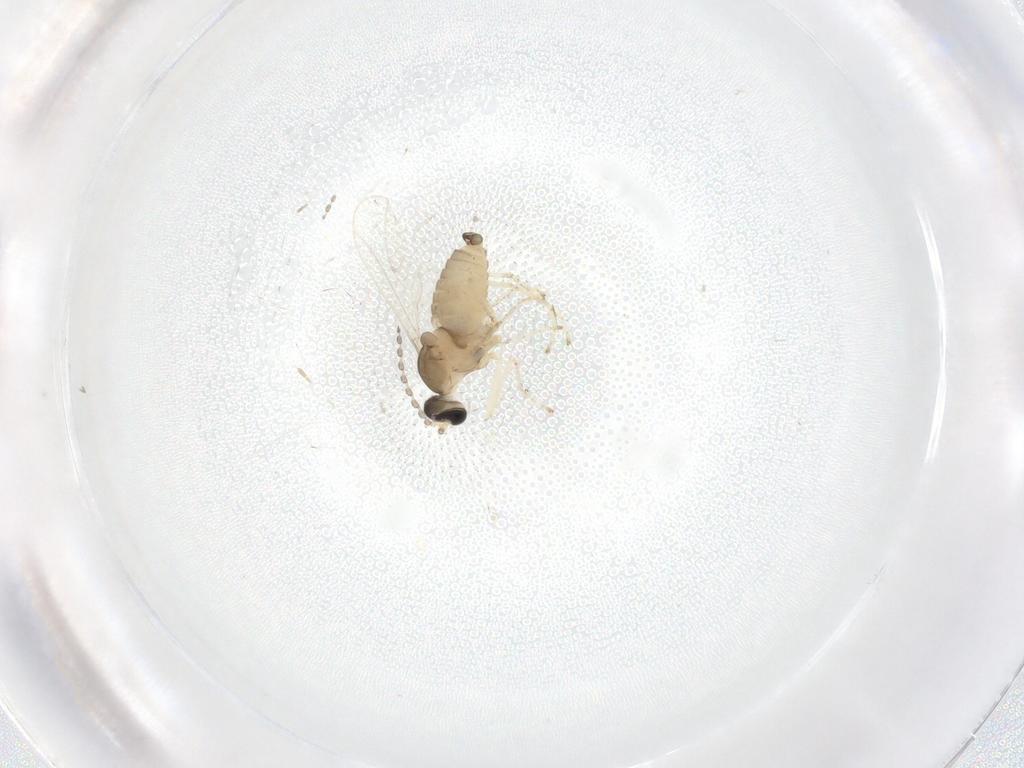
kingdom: Animalia
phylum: Arthropoda
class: Insecta
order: Diptera
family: Cecidomyiidae
